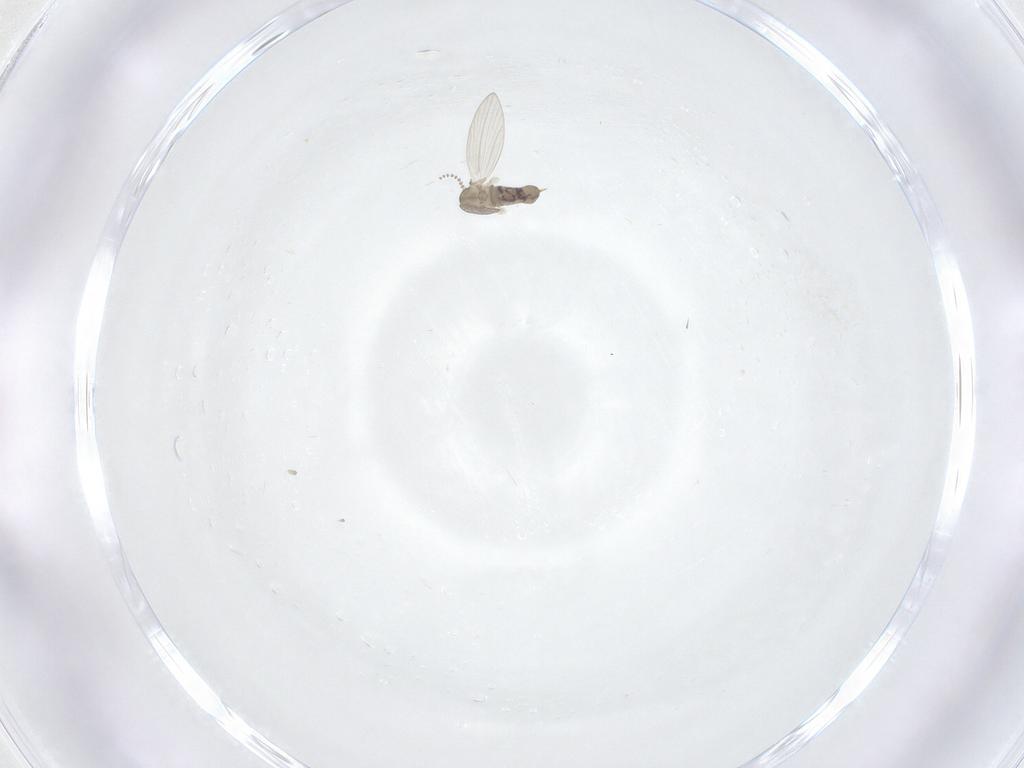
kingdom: Animalia
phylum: Arthropoda
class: Insecta
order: Diptera
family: Psychodidae
